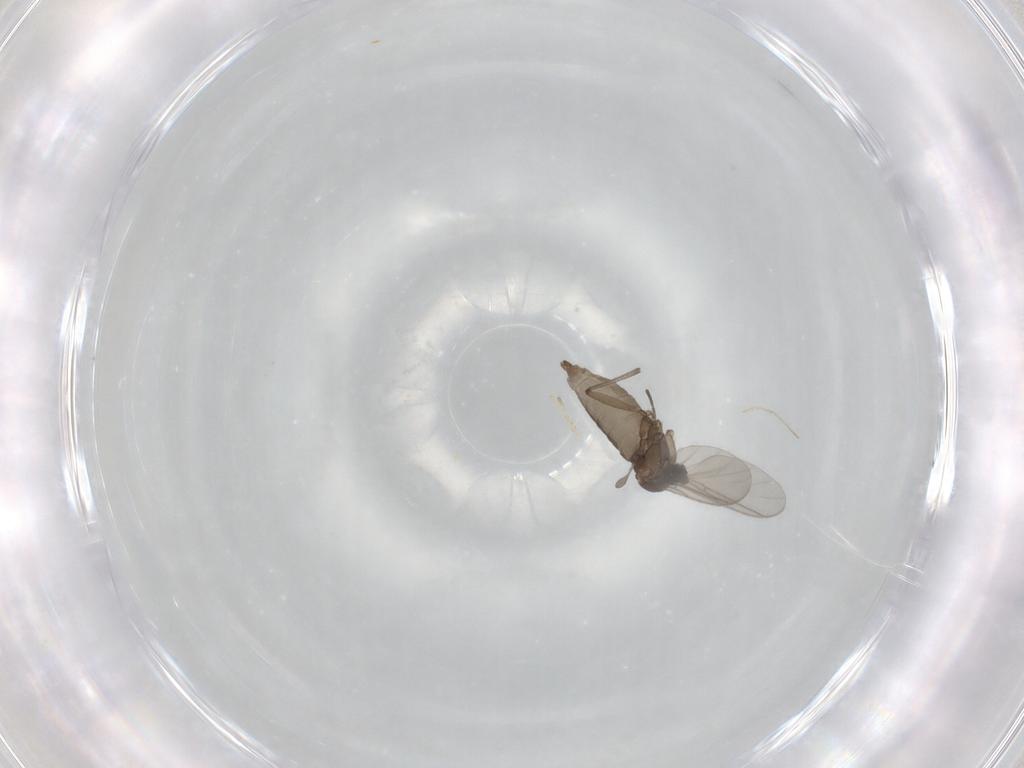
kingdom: Animalia
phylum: Arthropoda
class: Insecta
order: Diptera
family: Sciaridae
